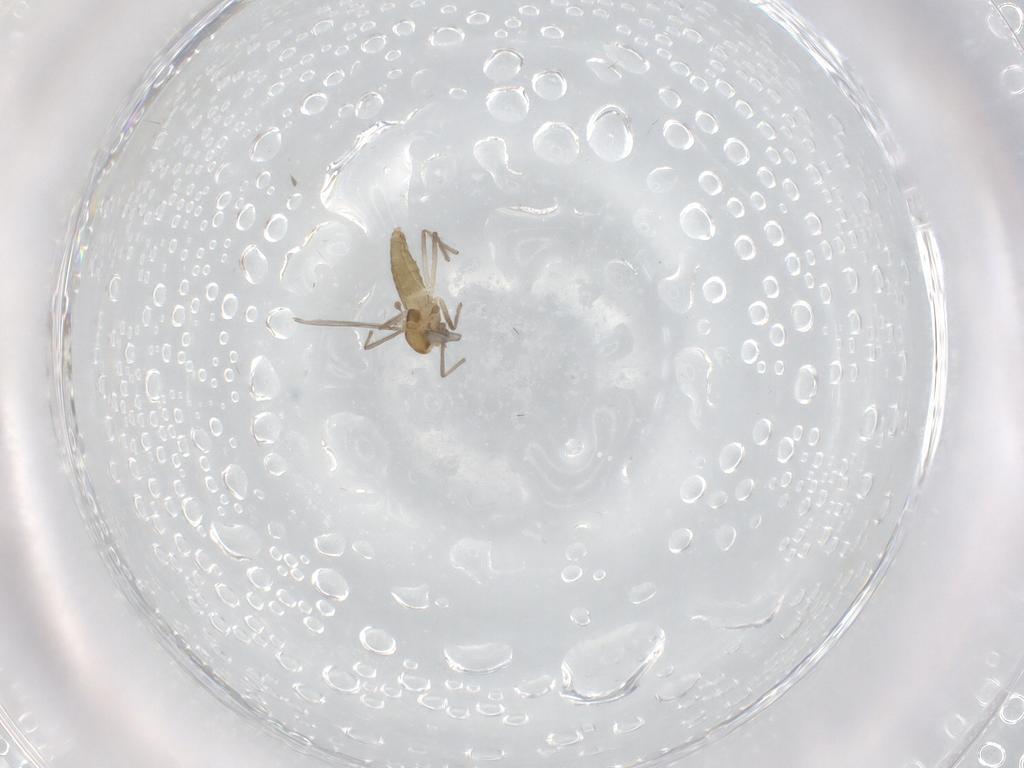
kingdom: Animalia
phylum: Arthropoda
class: Insecta
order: Diptera
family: Chironomidae
